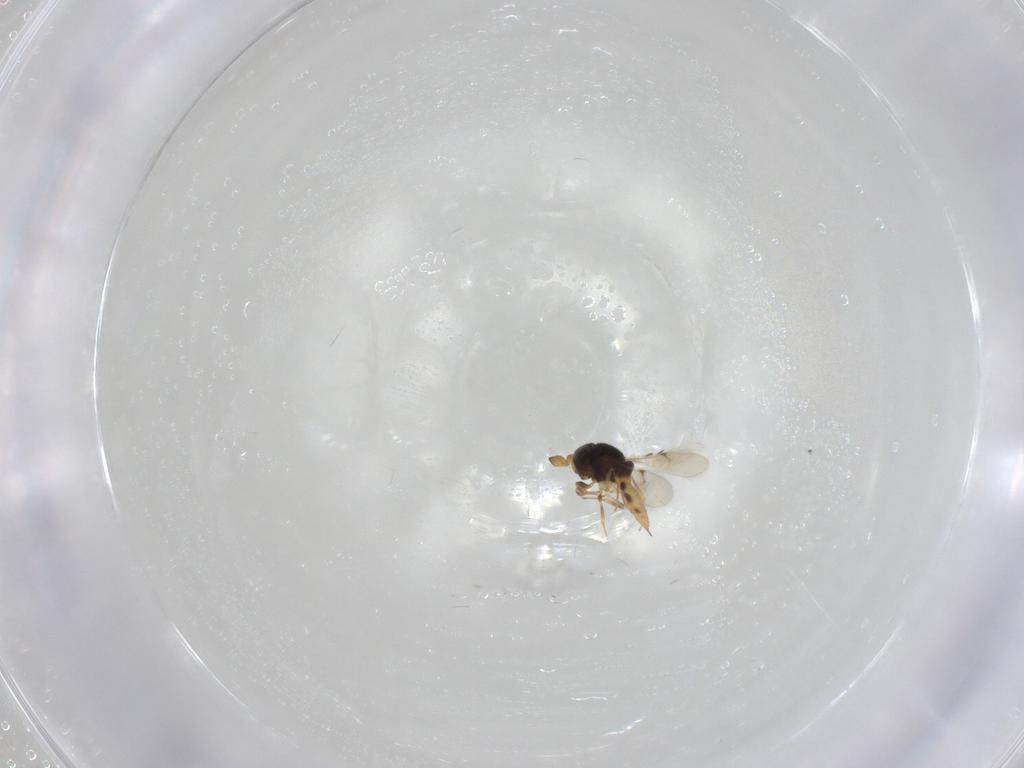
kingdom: Animalia
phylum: Arthropoda
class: Insecta
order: Hymenoptera
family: Scelionidae
